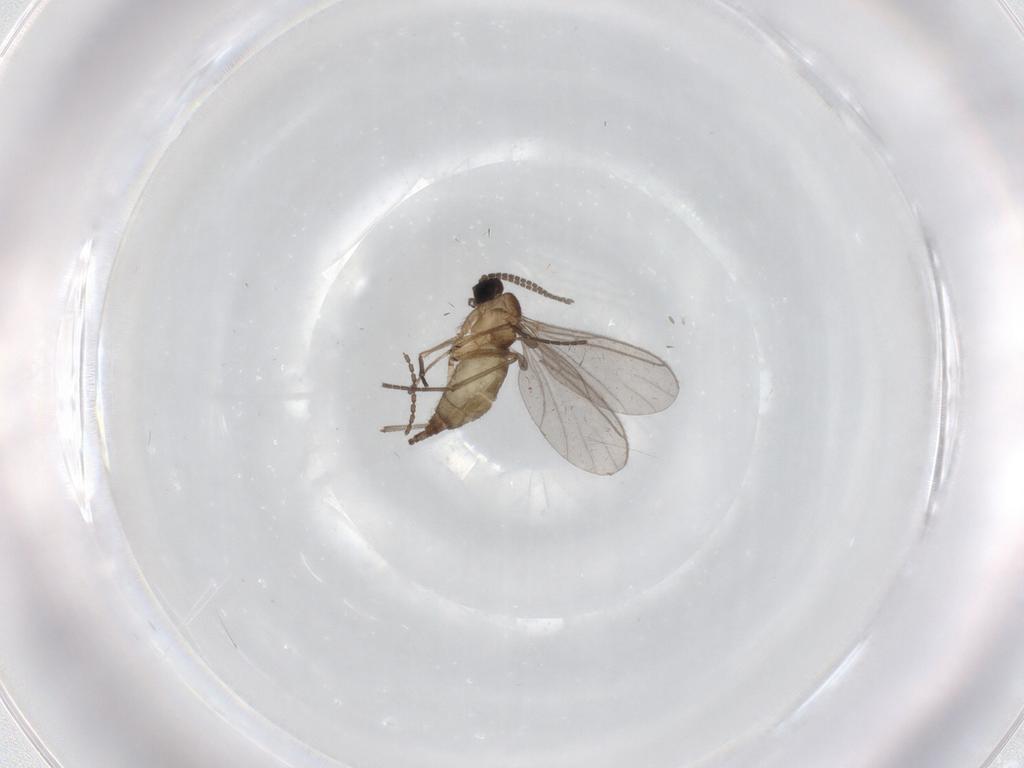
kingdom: Animalia
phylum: Arthropoda
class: Insecta
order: Diptera
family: Sciaridae
